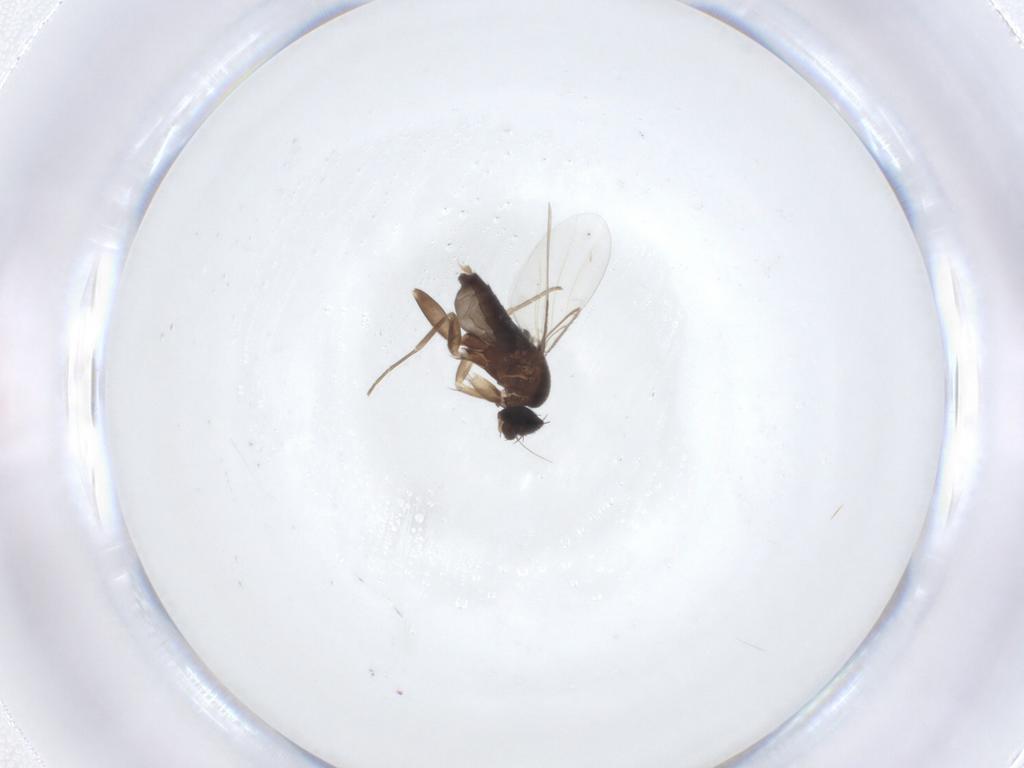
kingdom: Animalia
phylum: Arthropoda
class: Insecta
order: Diptera
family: Phoridae
